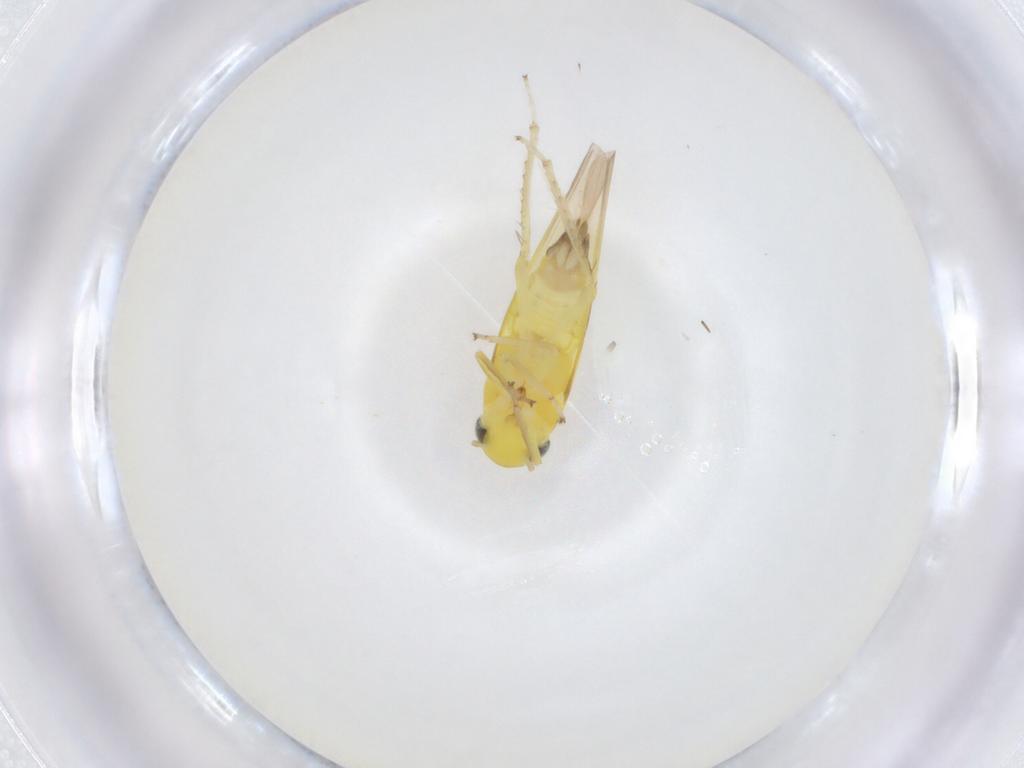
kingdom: Animalia
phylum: Arthropoda
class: Insecta
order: Hemiptera
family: Cicadellidae
